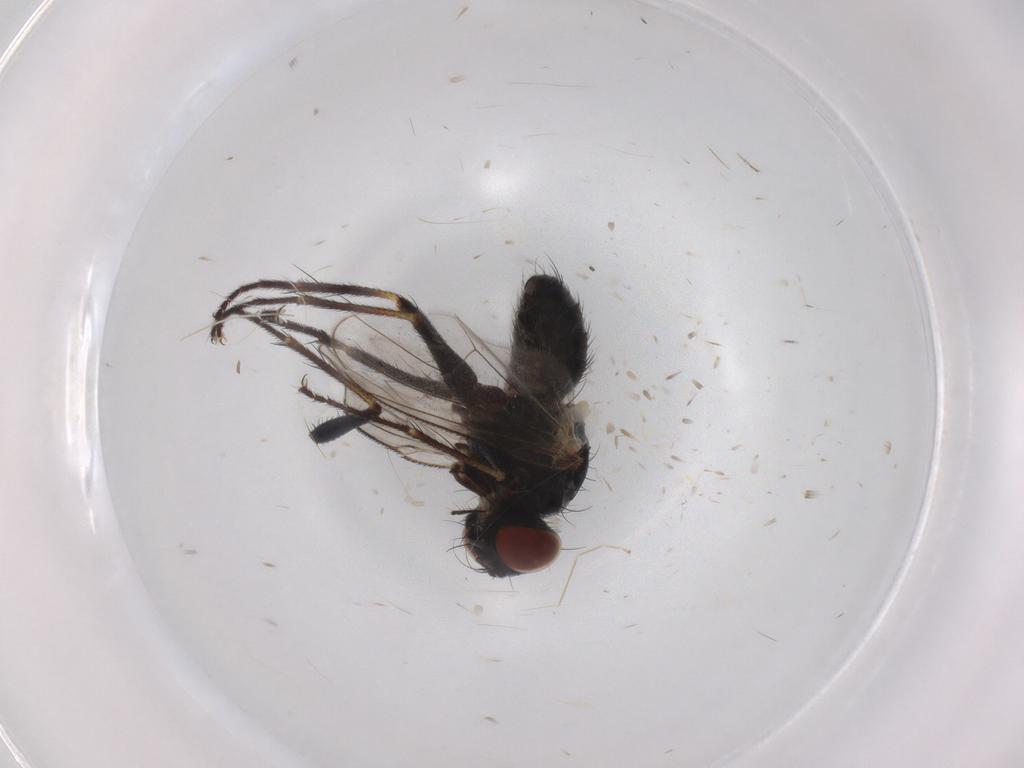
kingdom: Animalia
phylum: Arthropoda
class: Insecta
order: Diptera
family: Muscidae
